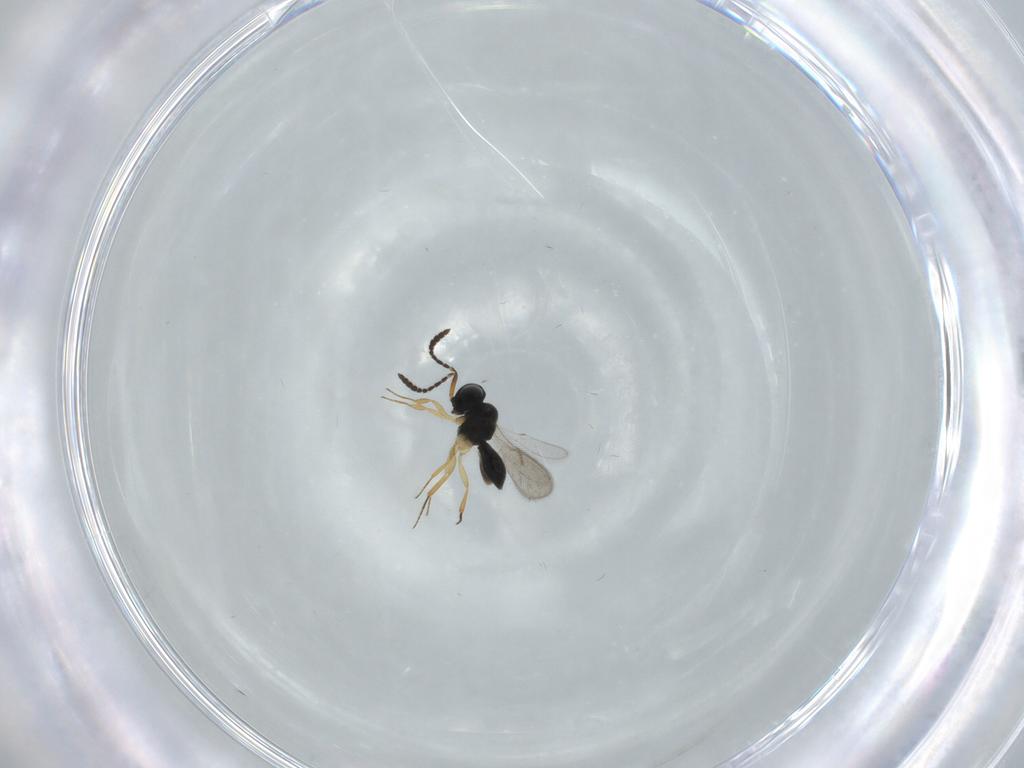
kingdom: Animalia
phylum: Arthropoda
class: Insecta
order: Hymenoptera
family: Scelionidae
